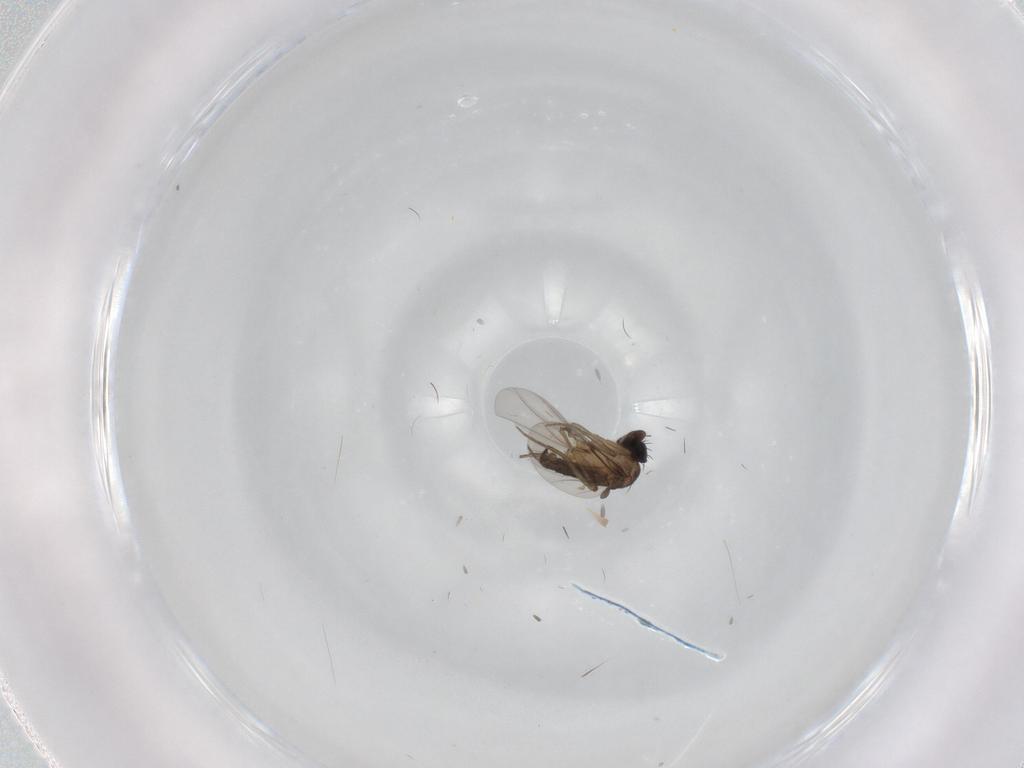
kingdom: Animalia
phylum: Arthropoda
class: Insecta
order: Diptera
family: Phoridae
